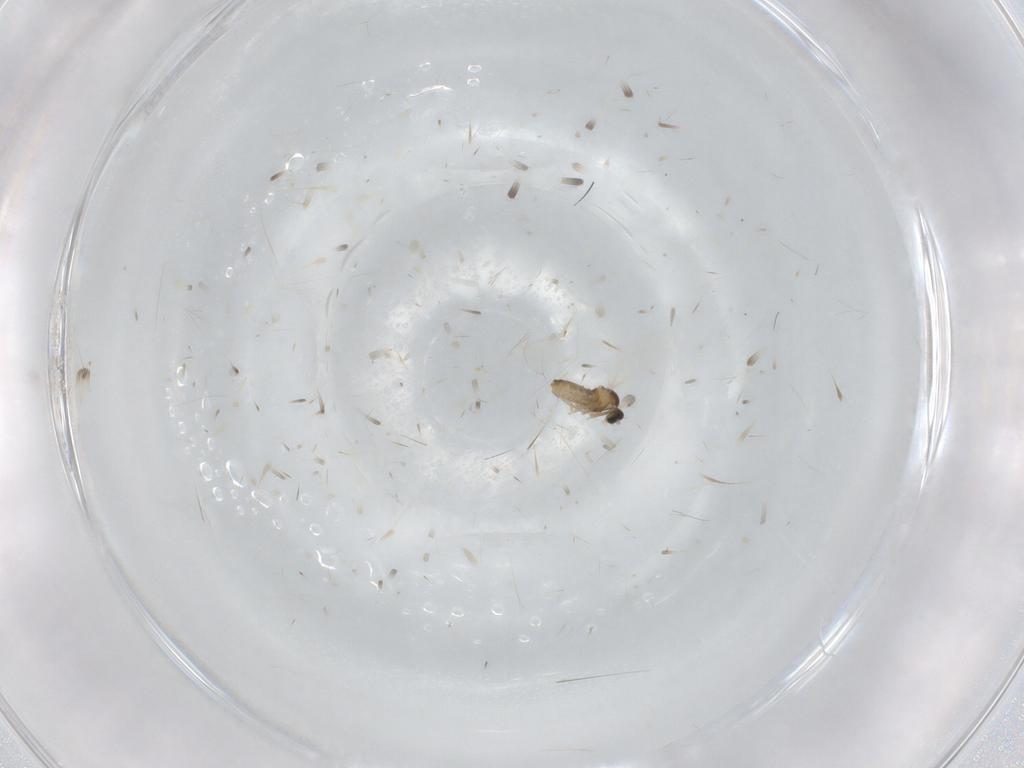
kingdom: Animalia
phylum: Arthropoda
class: Insecta
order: Diptera
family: Cecidomyiidae
